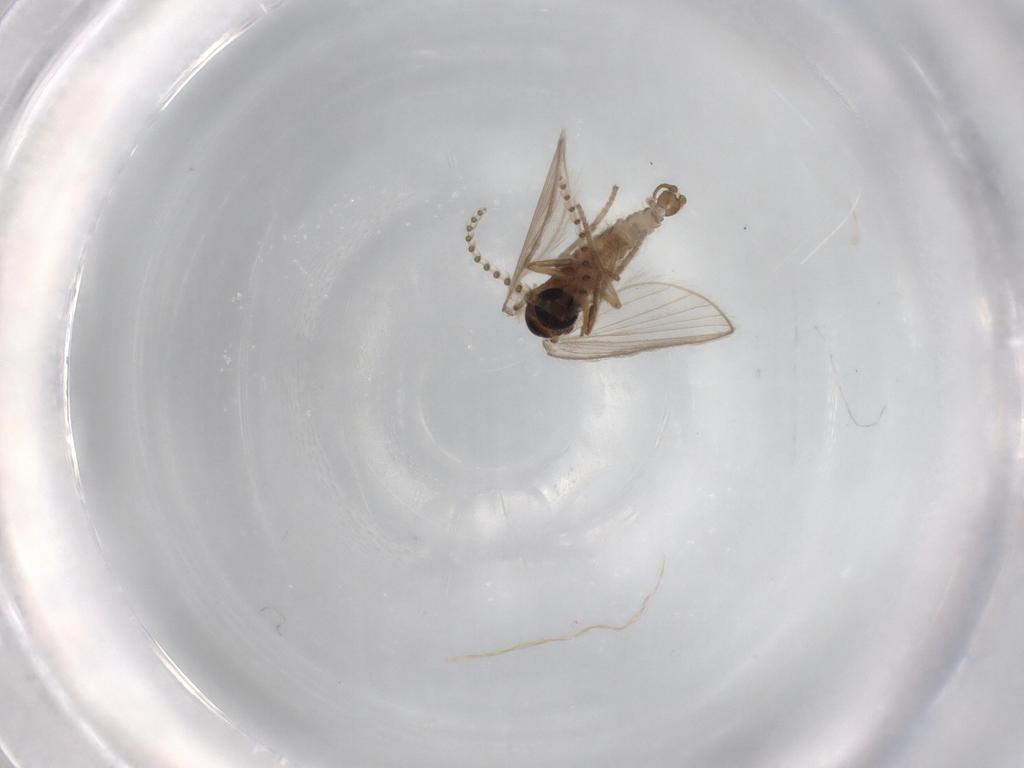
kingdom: Animalia
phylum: Arthropoda
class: Insecta
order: Diptera
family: Psychodidae
